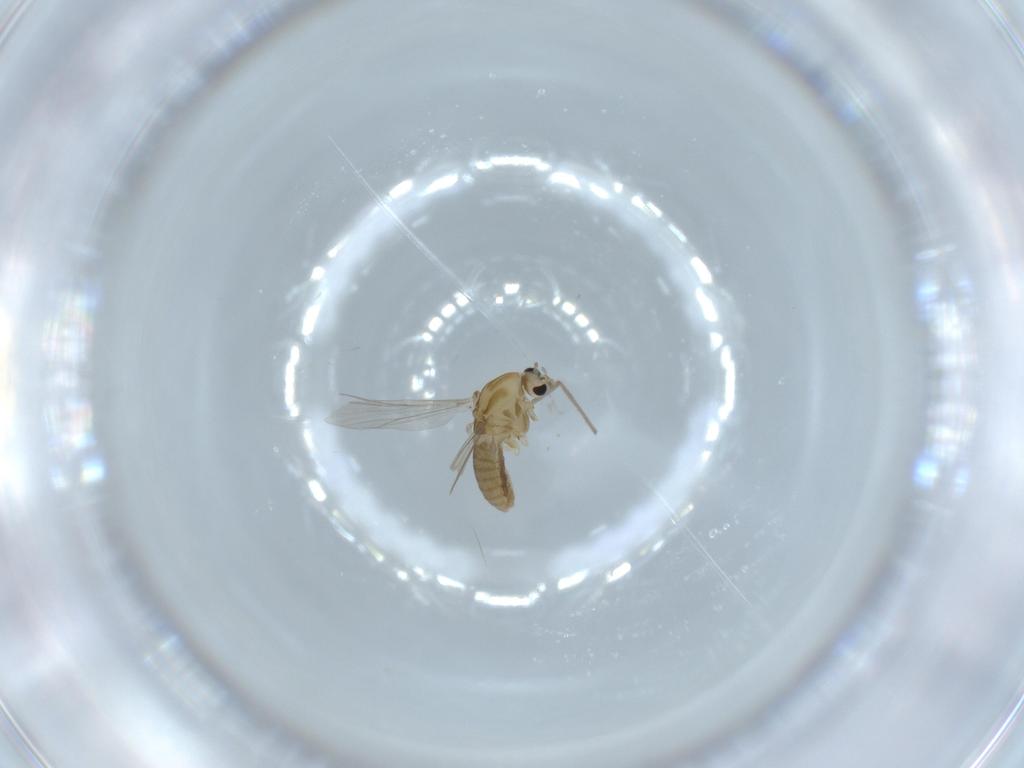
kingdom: Animalia
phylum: Arthropoda
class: Insecta
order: Diptera
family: Chironomidae
